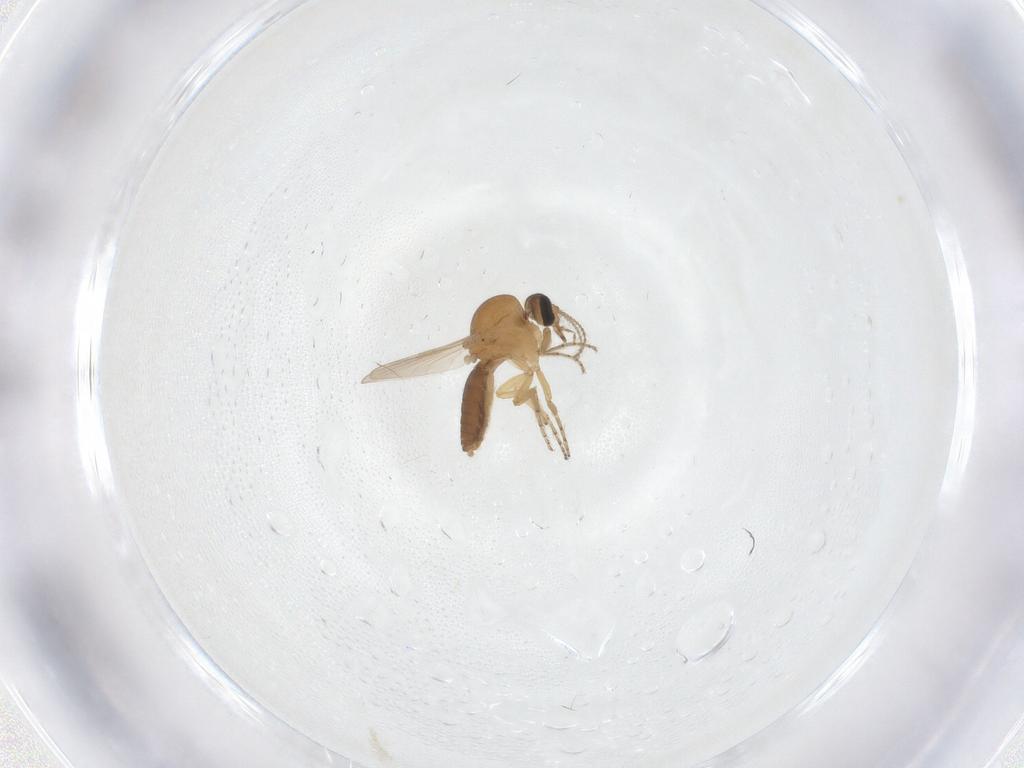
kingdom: Animalia
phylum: Arthropoda
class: Insecta
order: Diptera
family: Ceratopogonidae
